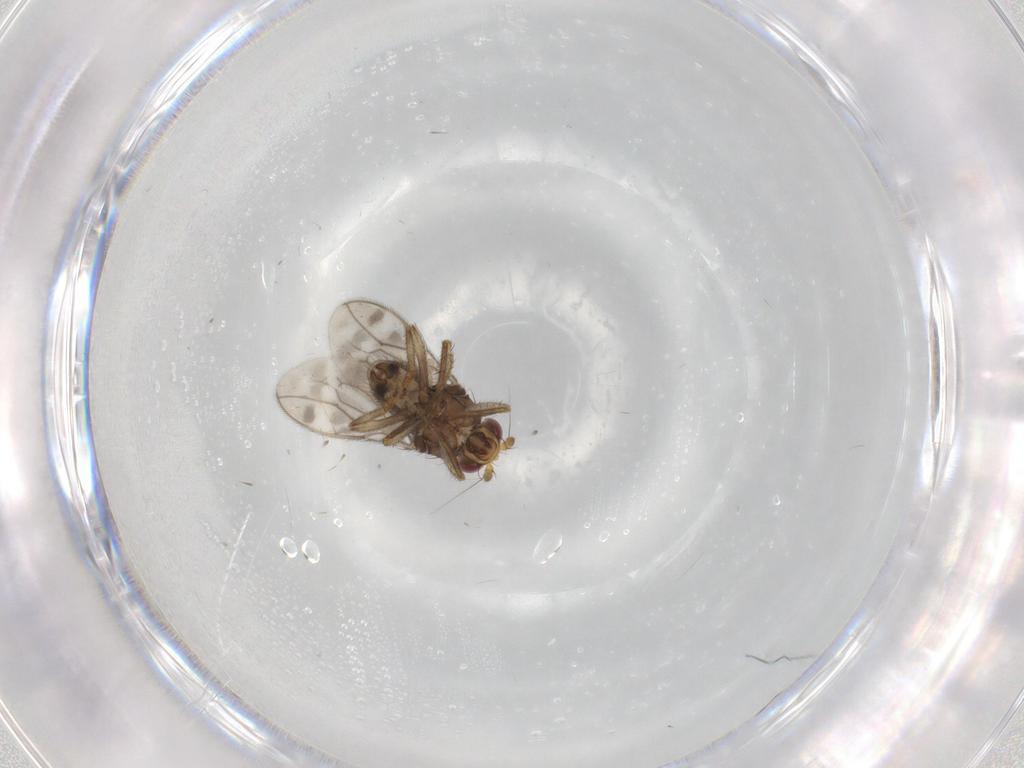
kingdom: Animalia
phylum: Arthropoda
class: Insecta
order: Diptera
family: Sphaeroceridae
